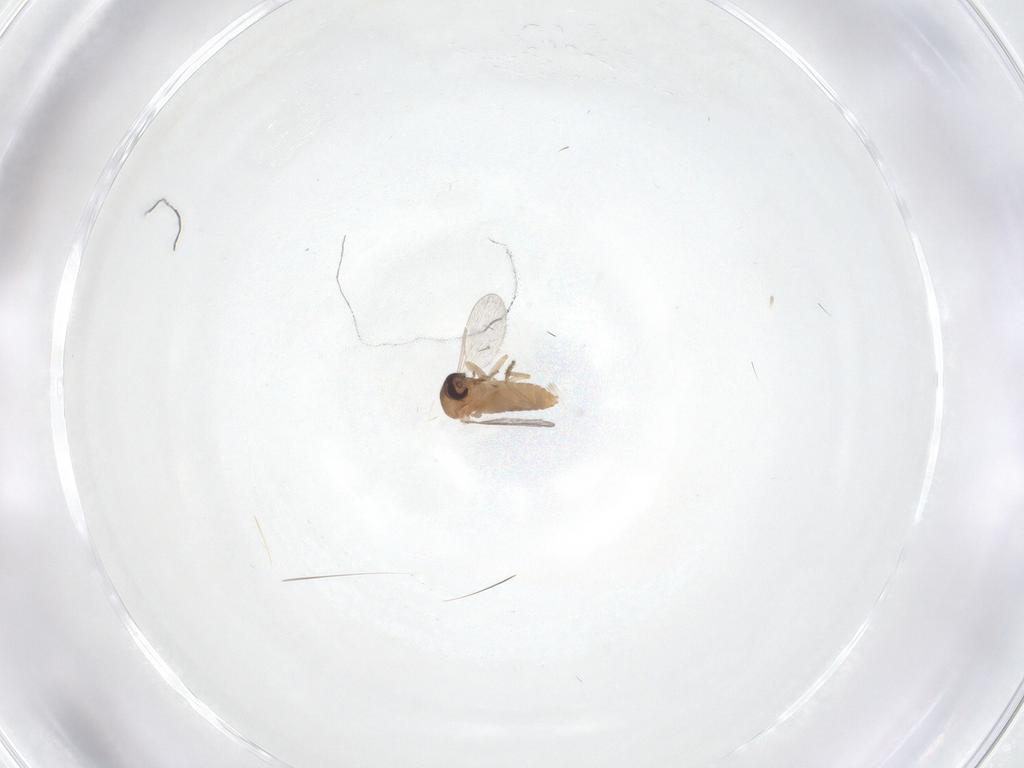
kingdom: Animalia
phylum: Arthropoda
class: Insecta
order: Diptera
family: Ceratopogonidae
